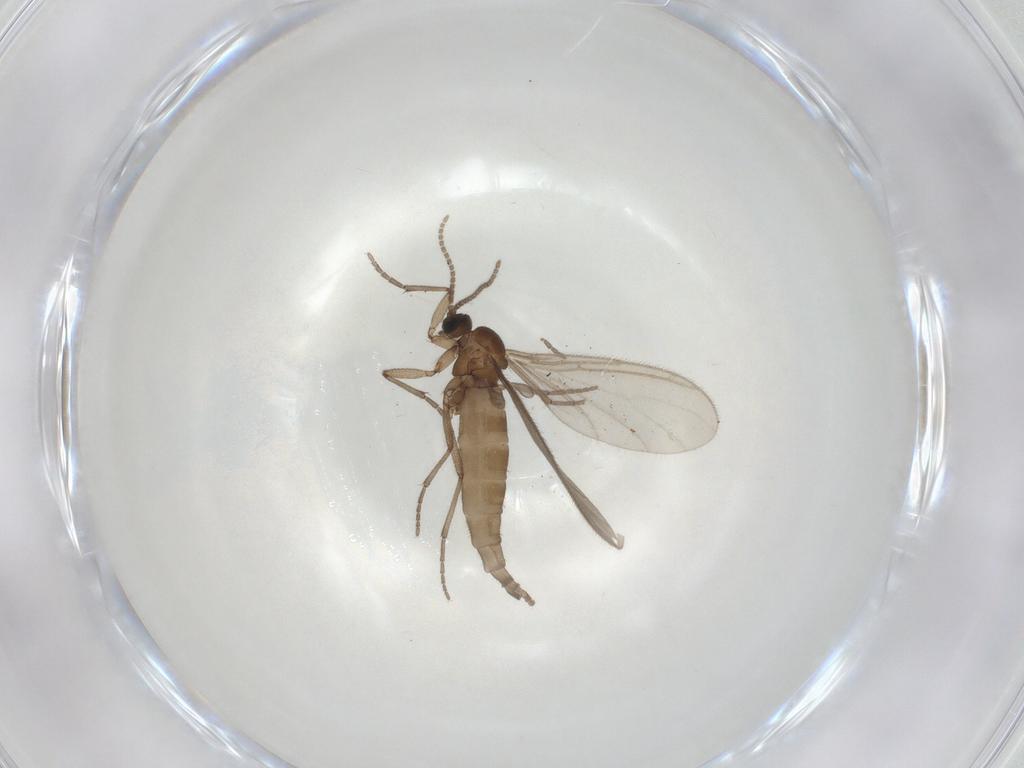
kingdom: Animalia
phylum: Arthropoda
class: Insecta
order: Diptera
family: Sciaridae
